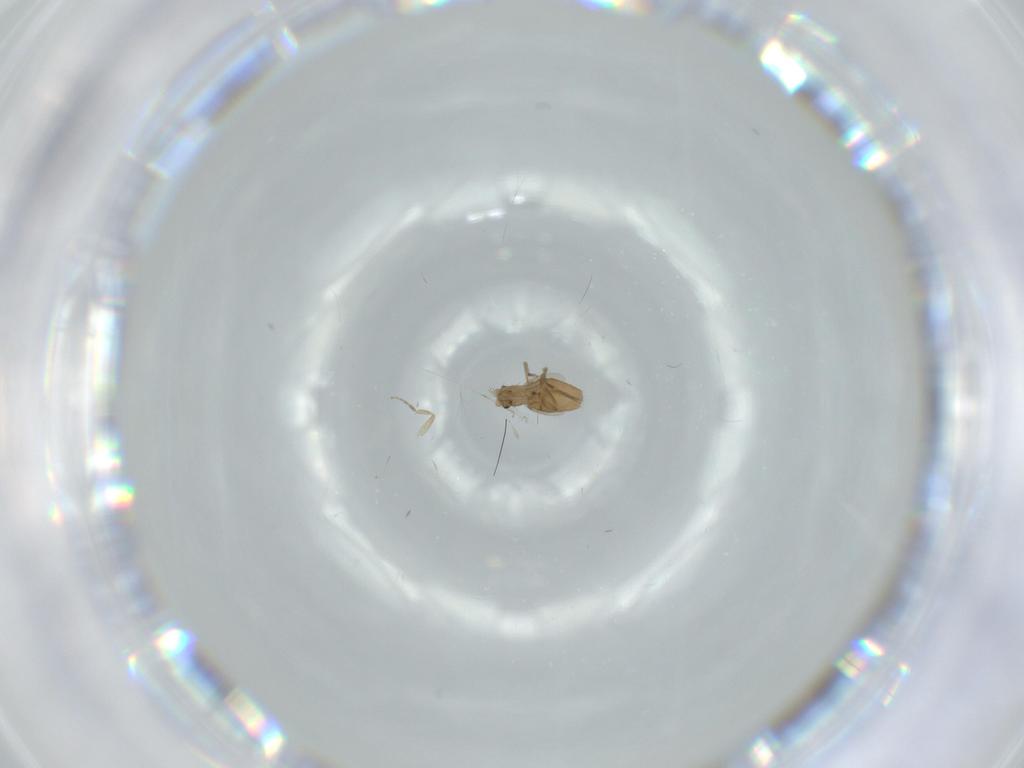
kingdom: Animalia
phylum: Arthropoda
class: Insecta
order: Diptera
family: Phoridae
